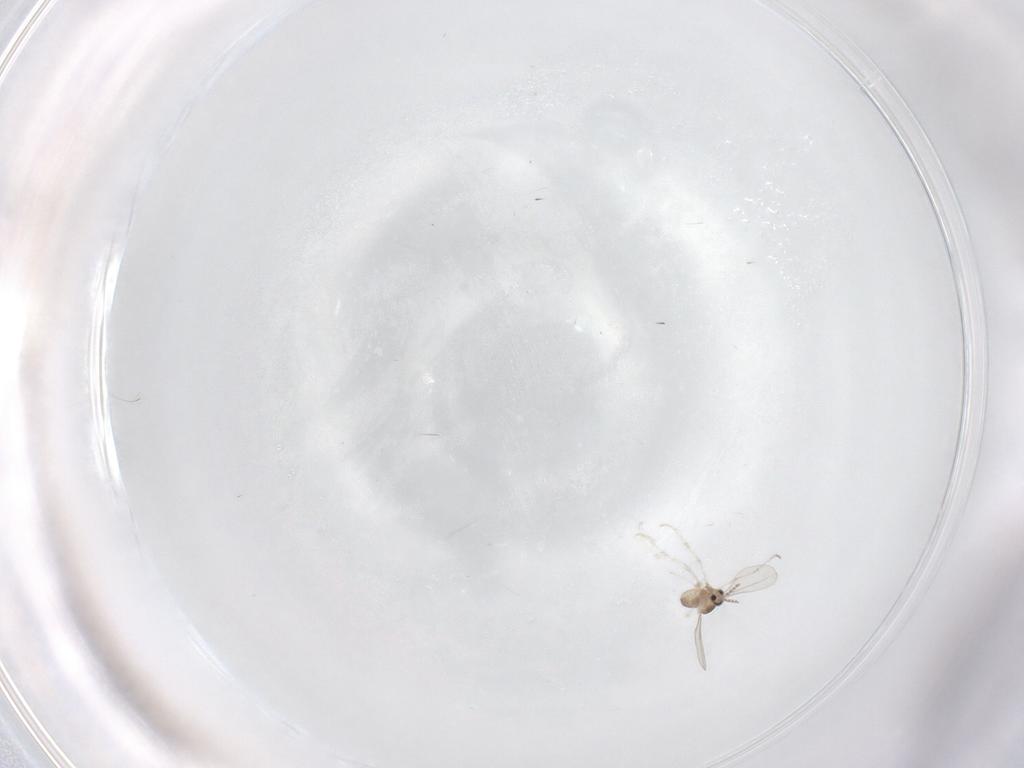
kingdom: Animalia
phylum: Arthropoda
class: Insecta
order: Diptera
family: Cecidomyiidae
